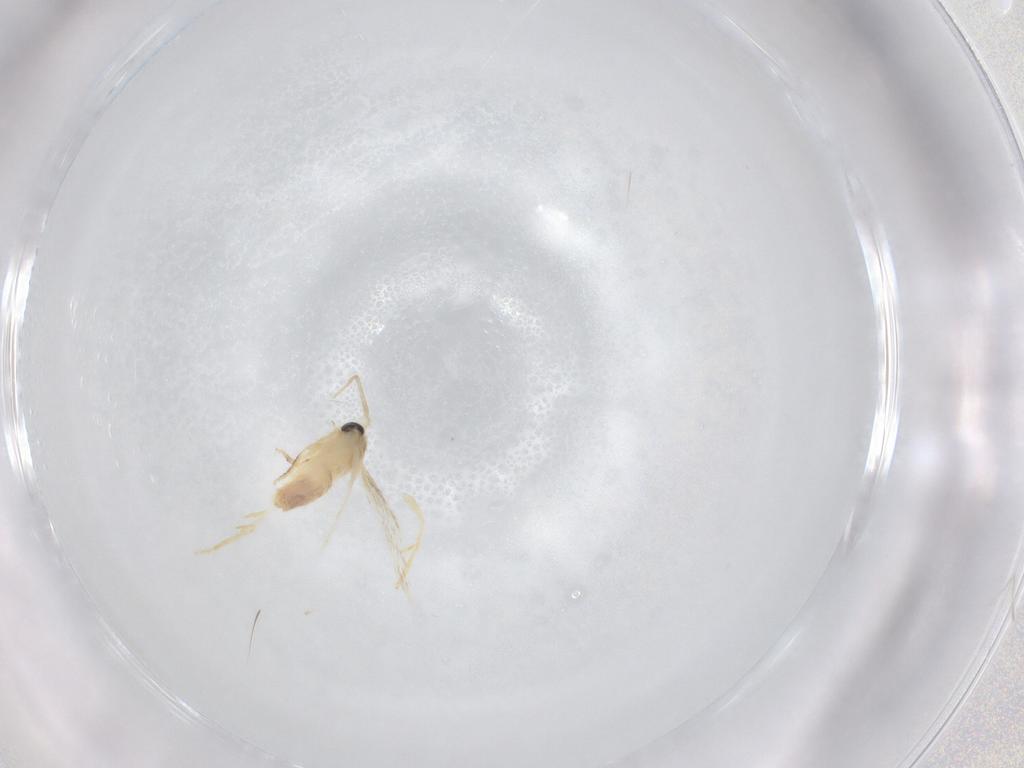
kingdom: Animalia
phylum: Arthropoda
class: Insecta
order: Lepidoptera
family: Nepticulidae
